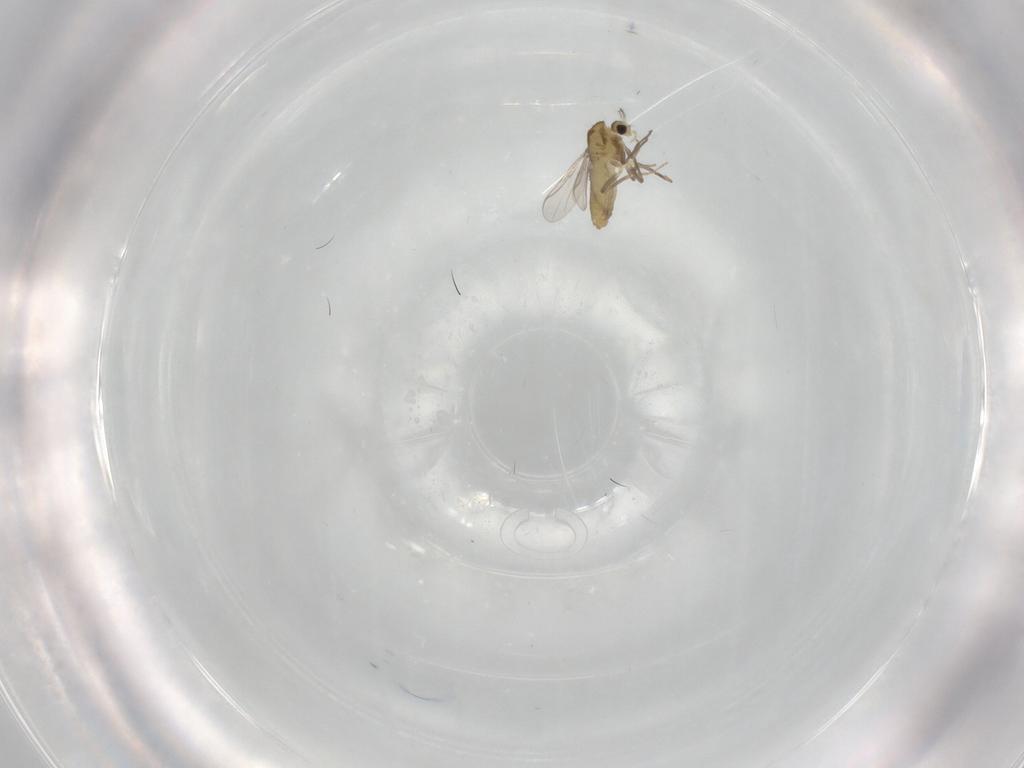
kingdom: Animalia
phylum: Arthropoda
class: Insecta
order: Diptera
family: Chironomidae
